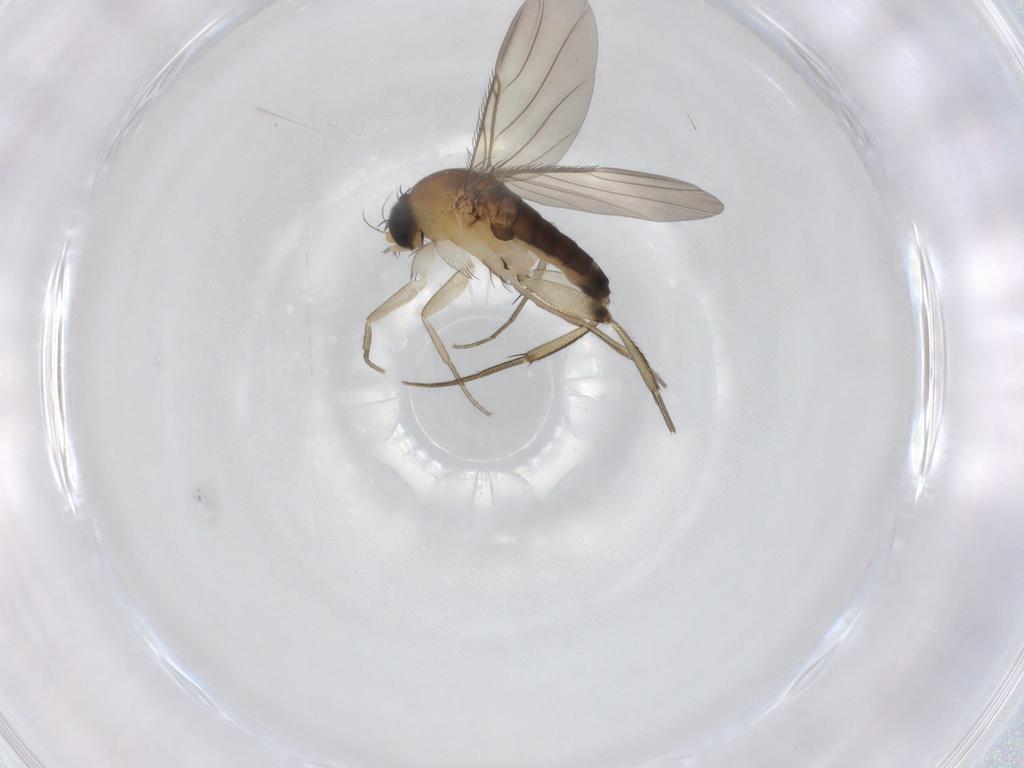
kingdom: Animalia
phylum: Arthropoda
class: Insecta
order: Diptera
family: Phoridae
